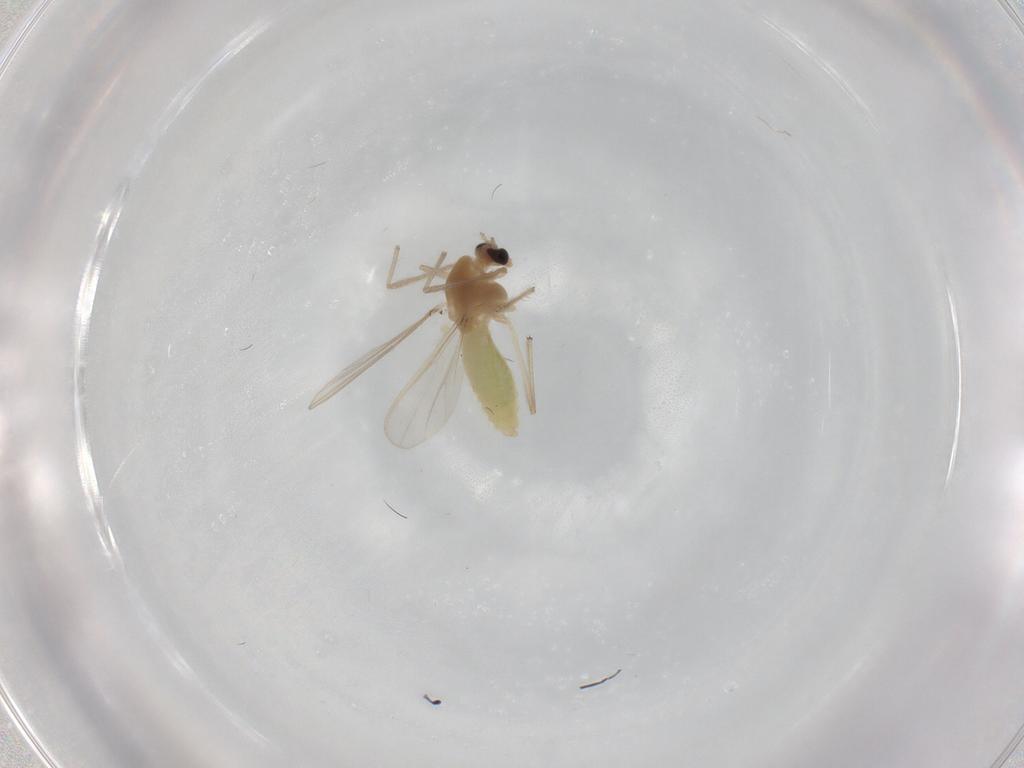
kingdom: Animalia
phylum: Arthropoda
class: Insecta
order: Diptera
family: Chironomidae
